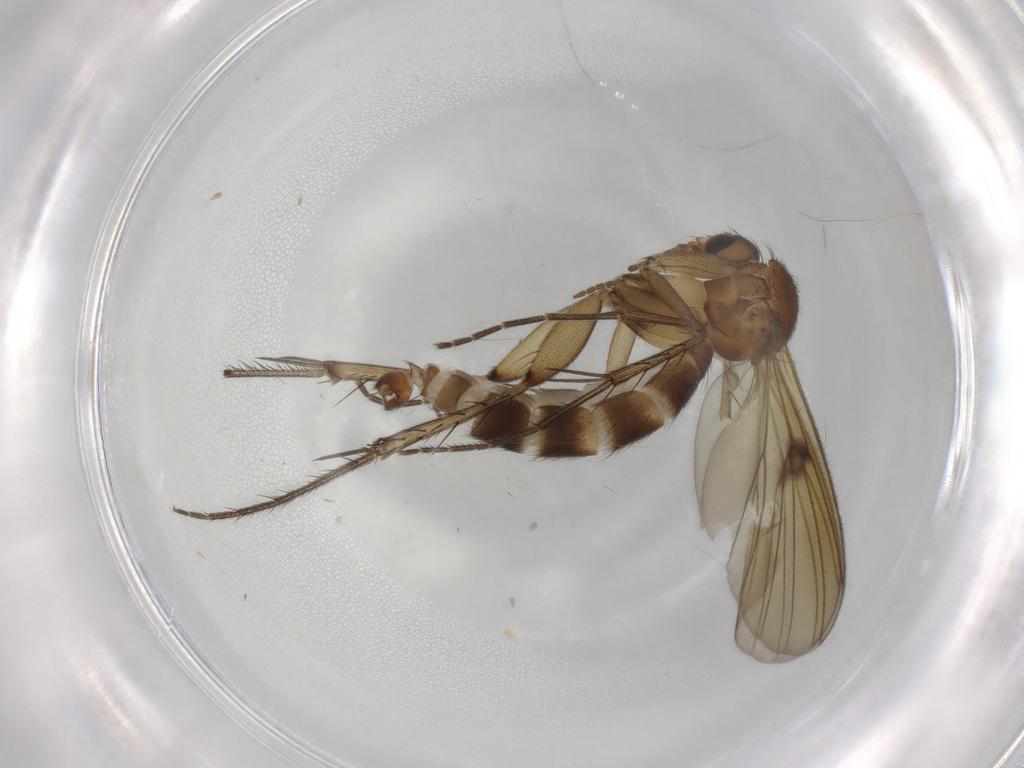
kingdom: Animalia
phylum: Arthropoda
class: Insecta
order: Diptera
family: Mycetophilidae
